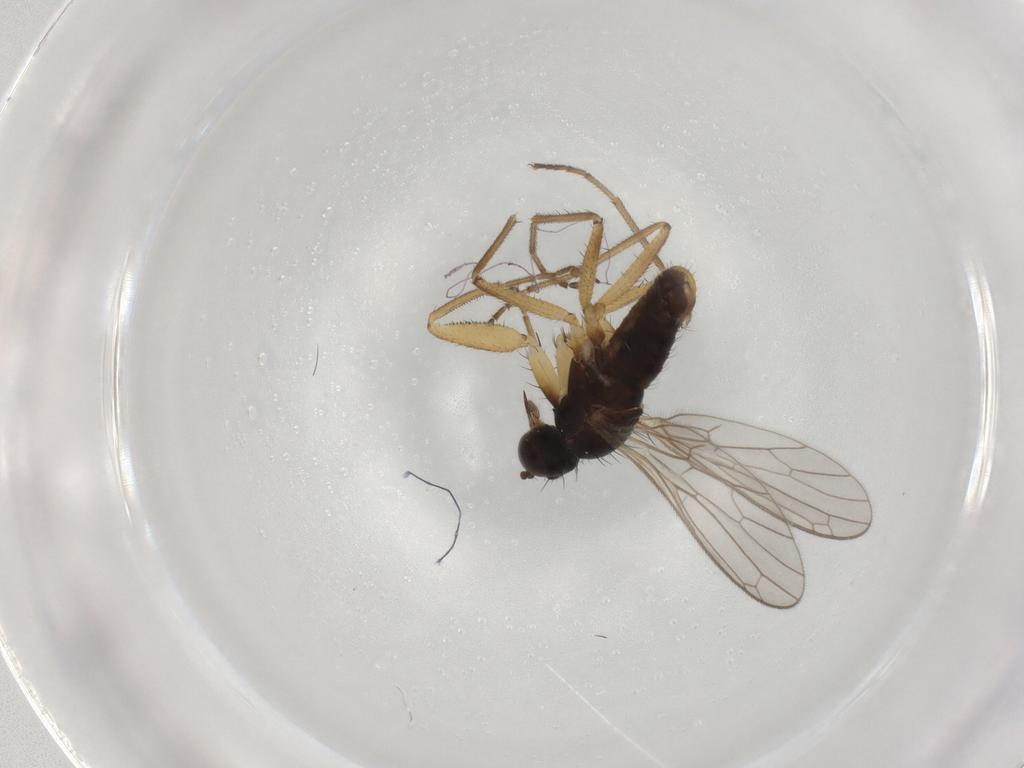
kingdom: Animalia
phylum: Arthropoda
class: Insecta
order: Diptera
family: Empididae
